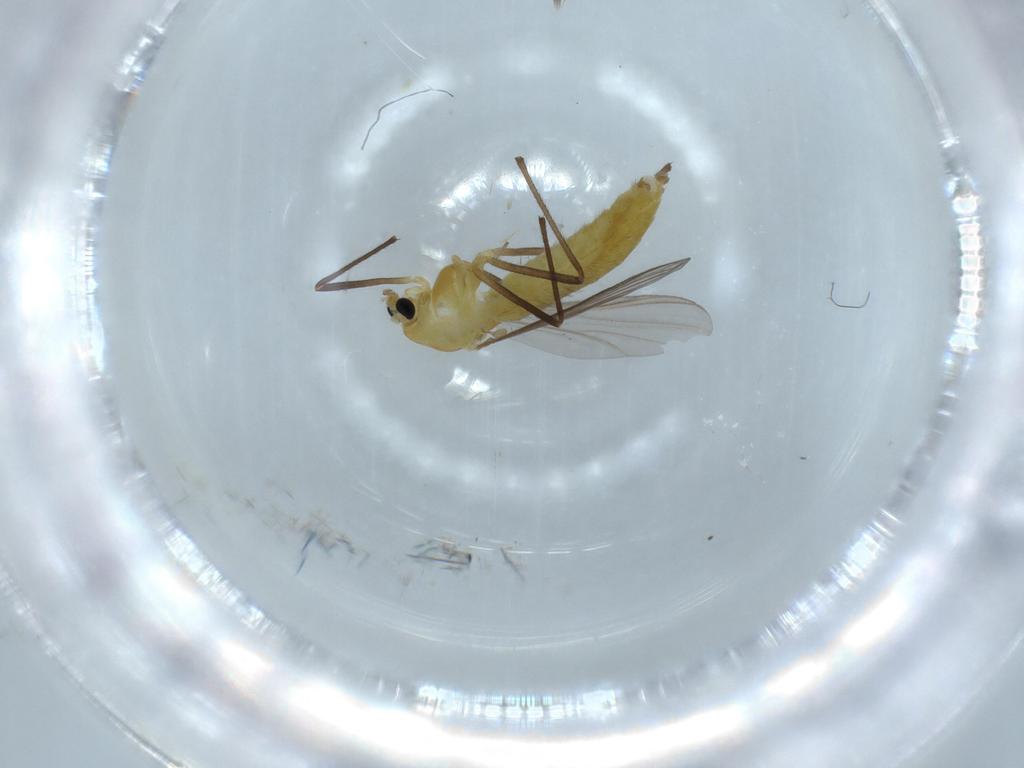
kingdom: Animalia
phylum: Arthropoda
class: Insecta
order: Diptera
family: Chironomidae
